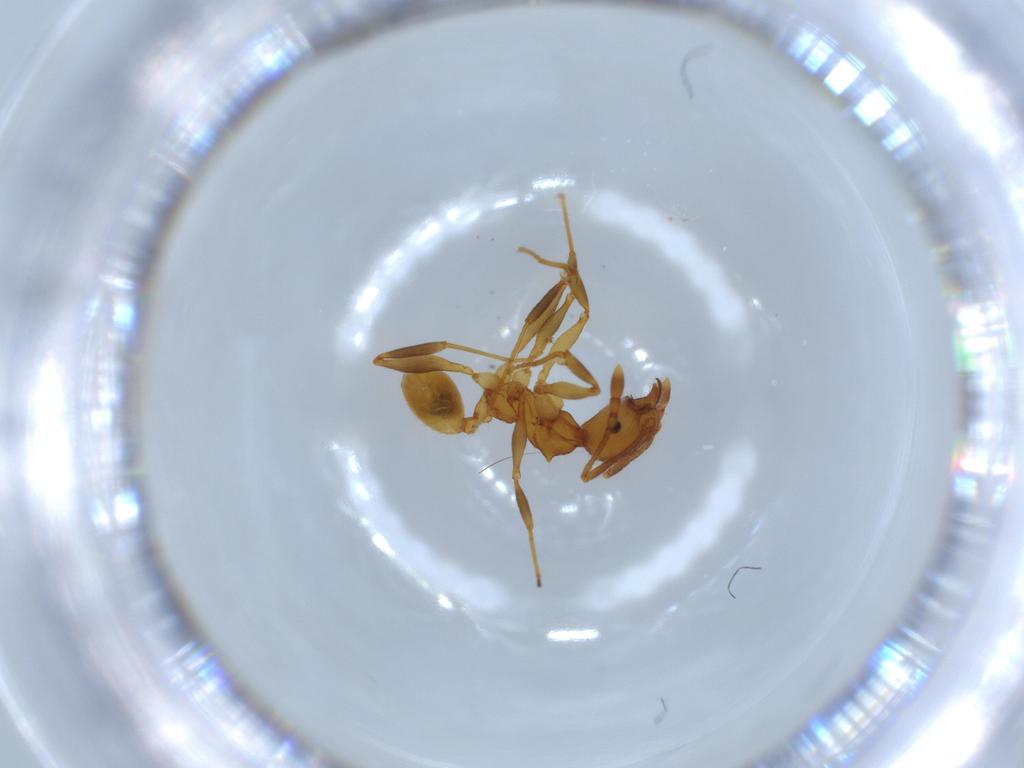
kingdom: Animalia
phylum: Arthropoda
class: Insecta
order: Hymenoptera
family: Formicidae
